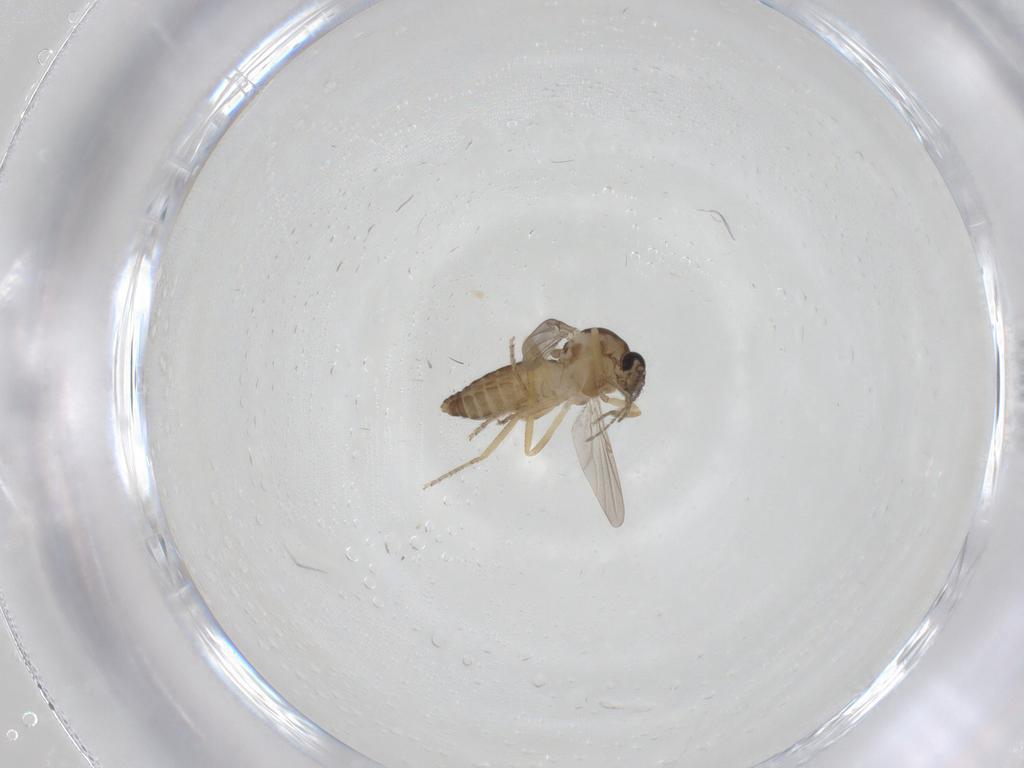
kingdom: Animalia
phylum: Arthropoda
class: Insecta
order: Diptera
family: Ceratopogonidae
